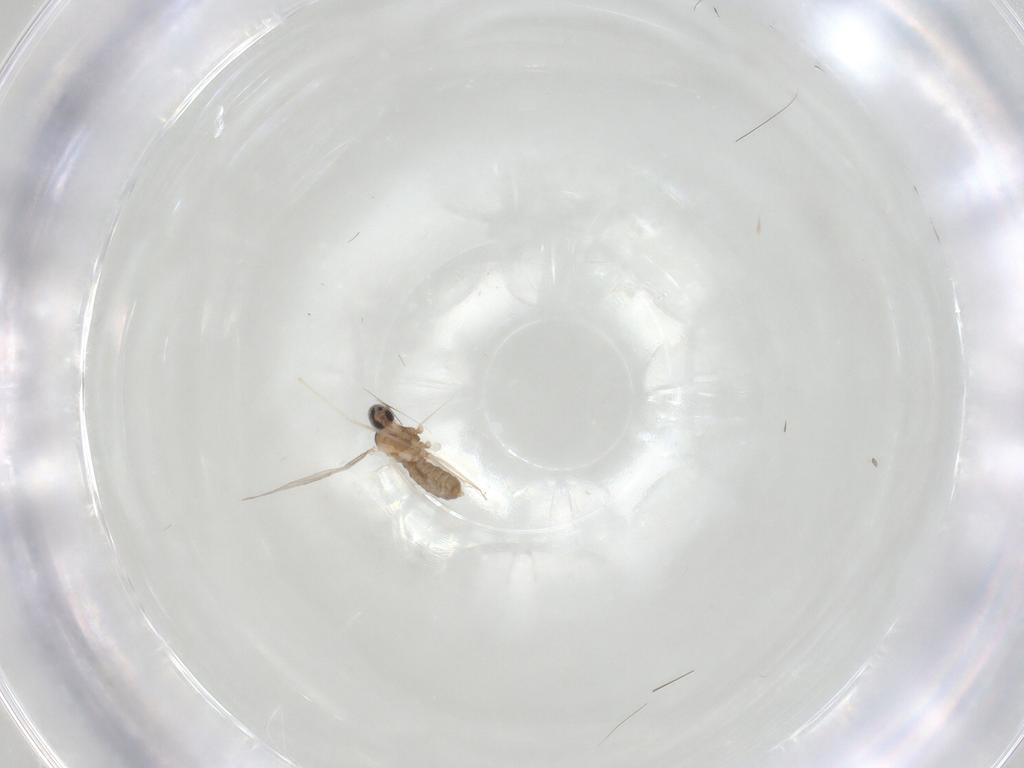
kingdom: Animalia
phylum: Arthropoda
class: Insecta
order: Diptera
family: Cecidomyiidae
